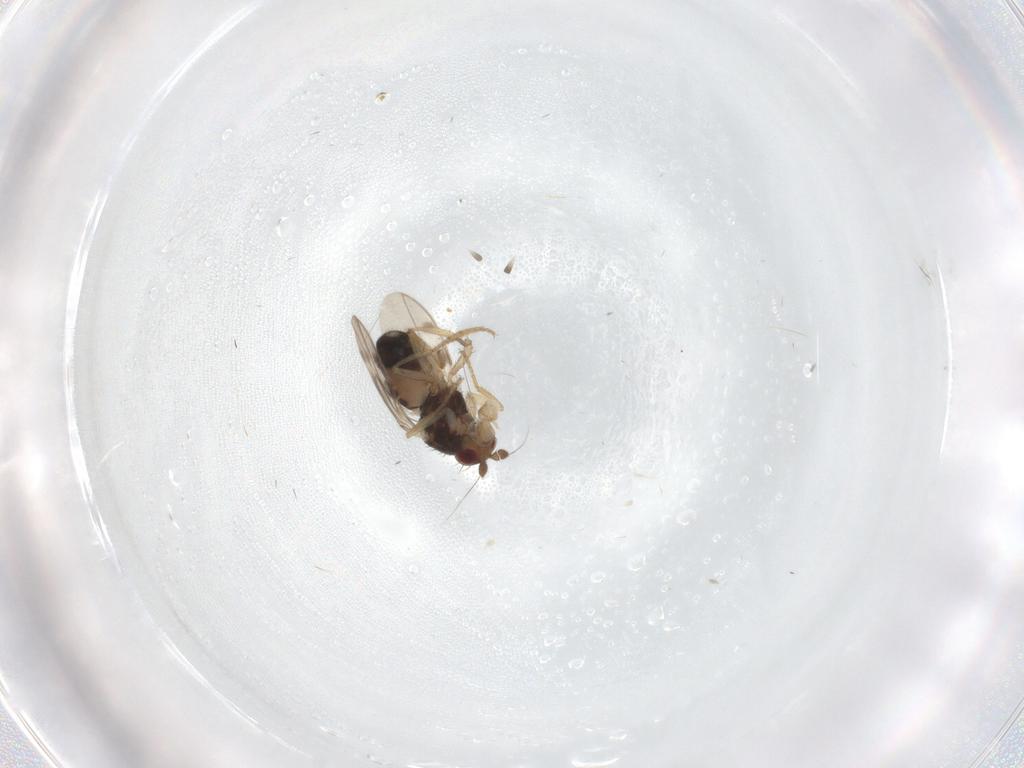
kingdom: Animalia
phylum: Arthropoda
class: Insecta
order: Diptera
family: Sphaeroceridae
